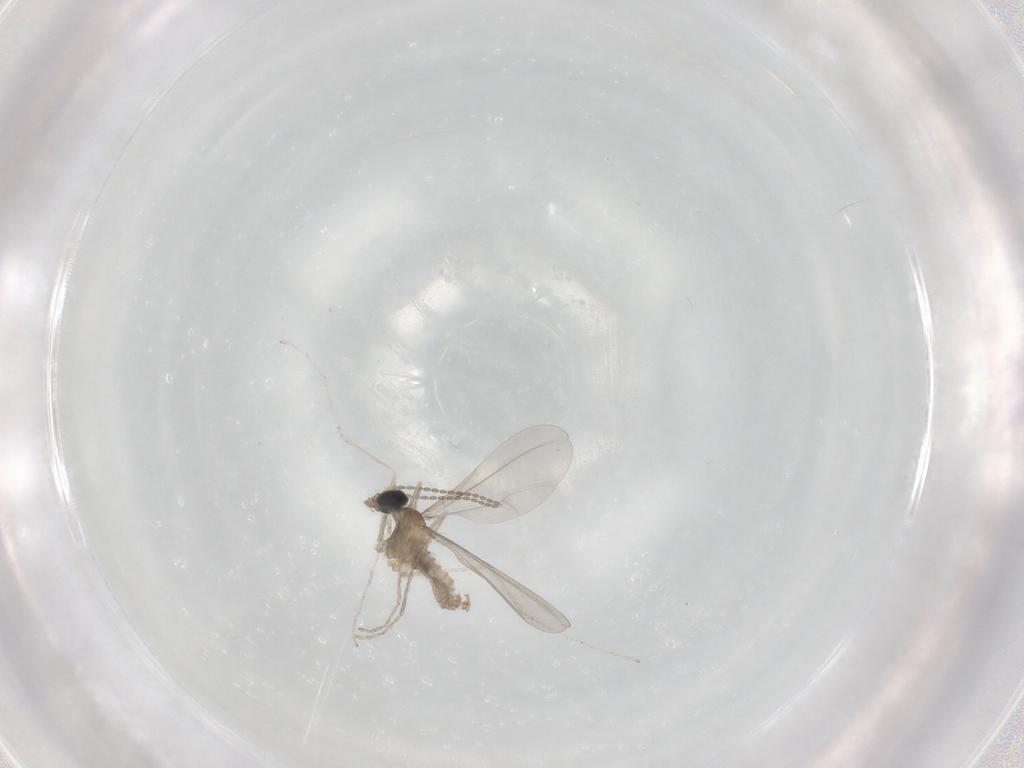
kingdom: Animalia
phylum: Arthropoda
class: Insecta
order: Diptera
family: Cecidomyiidae
